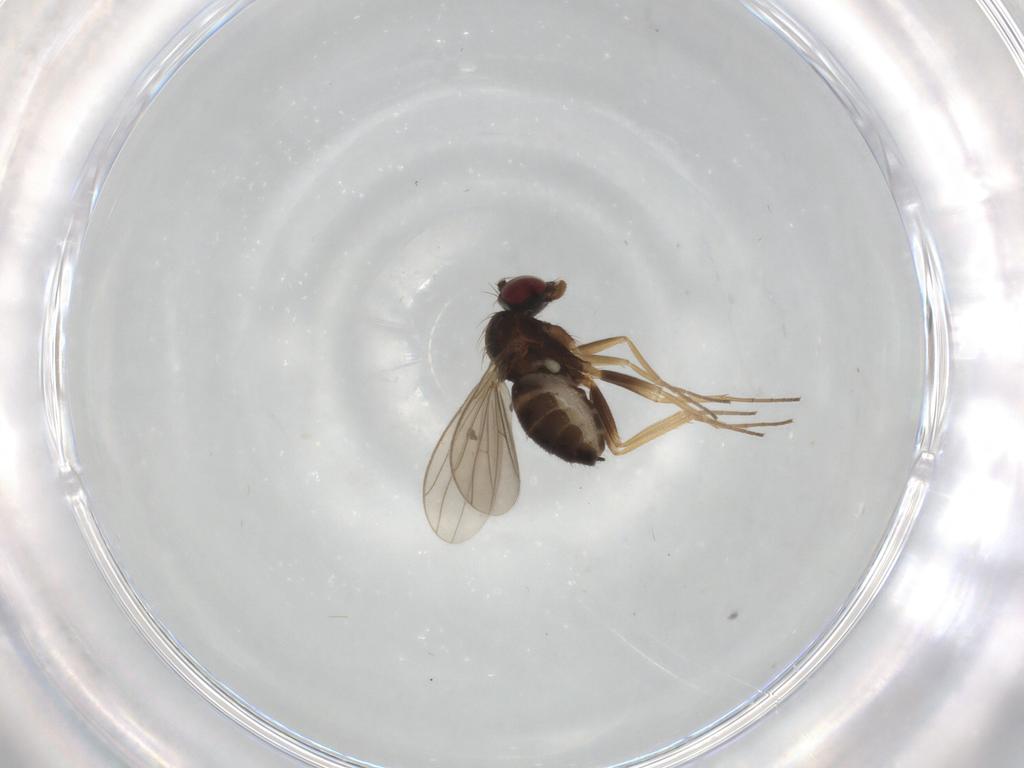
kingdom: Animalia
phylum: Arthropoda
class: Insecta
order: Diptera
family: Dolichopodidae
